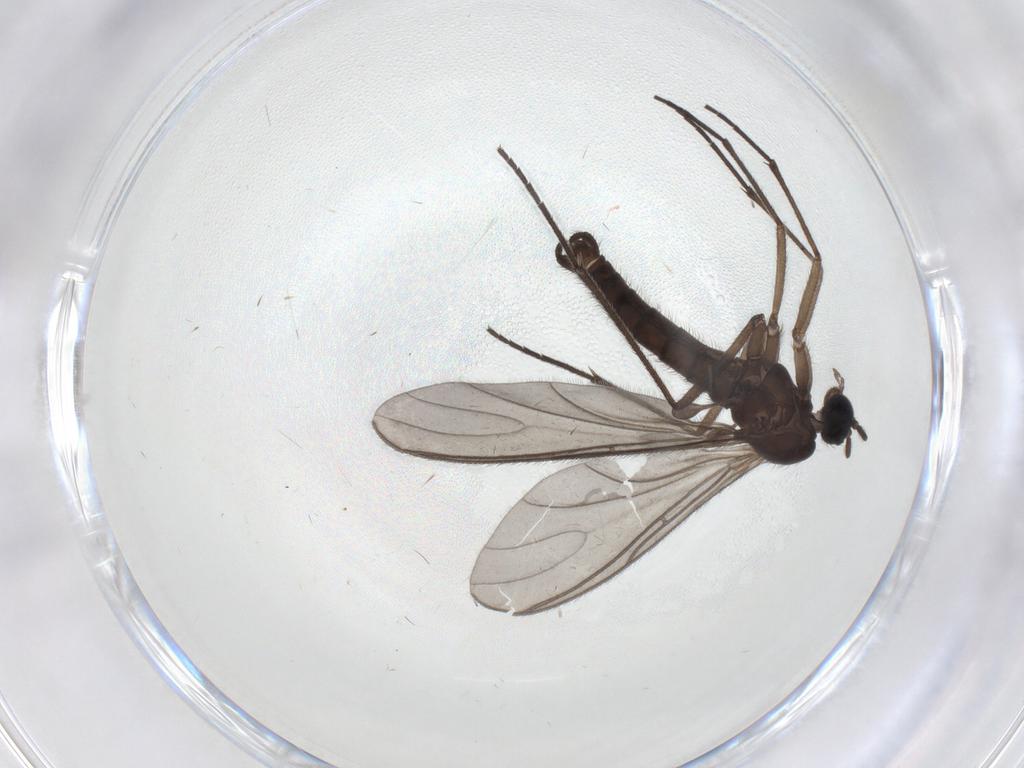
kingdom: Animalia
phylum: Arthropoda
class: Insecta
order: Diptera
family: Sciaridae
